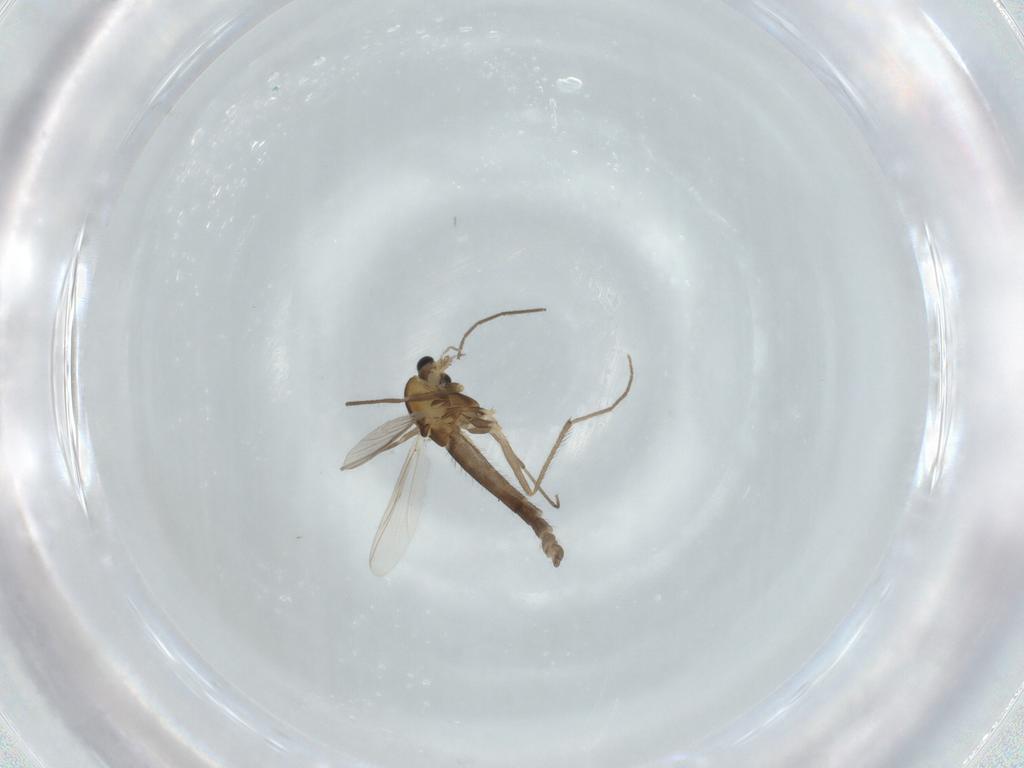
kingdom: Animalia
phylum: Arthropoda
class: Insecta
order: Diptera
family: Chironomidae
